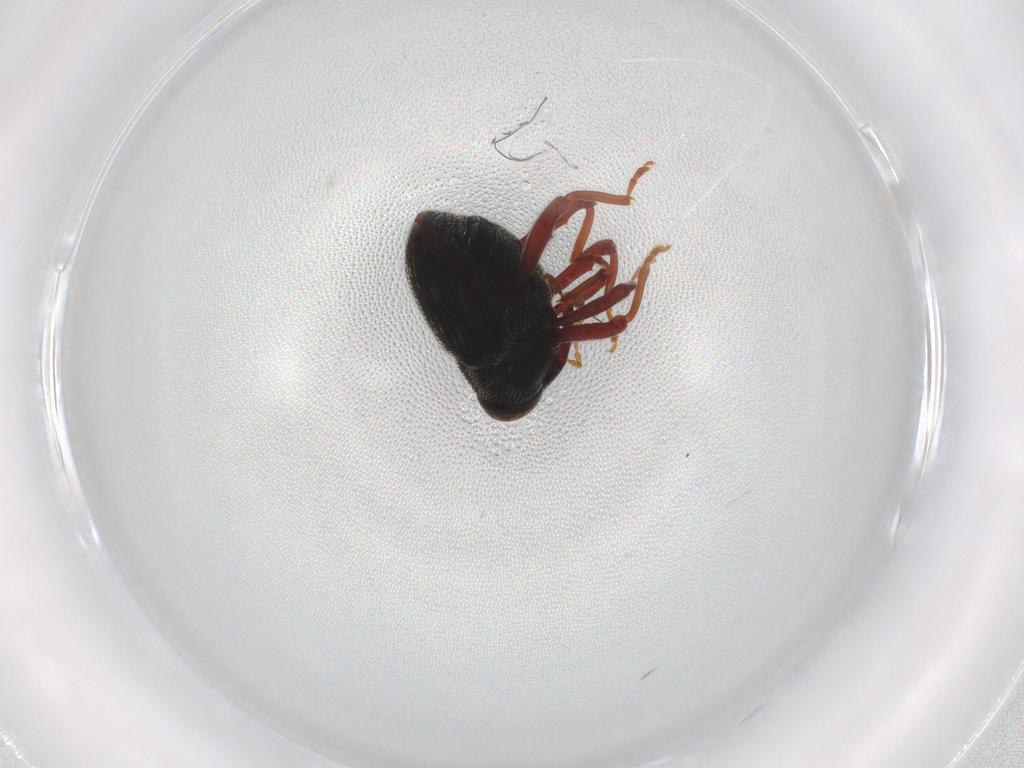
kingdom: Animalia
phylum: Arthropoda
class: Insecta
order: Coleoptera
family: Curculionidae
